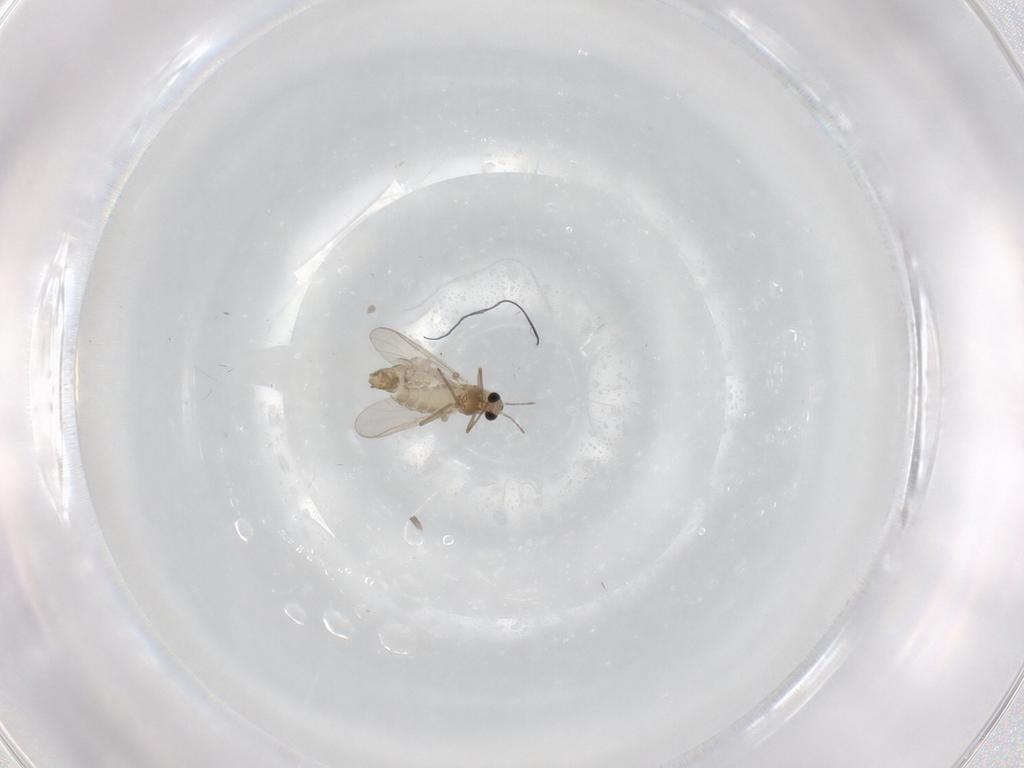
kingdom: Animalia
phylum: Arthropoda
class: Insecta
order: Diptera
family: Chironomidae
